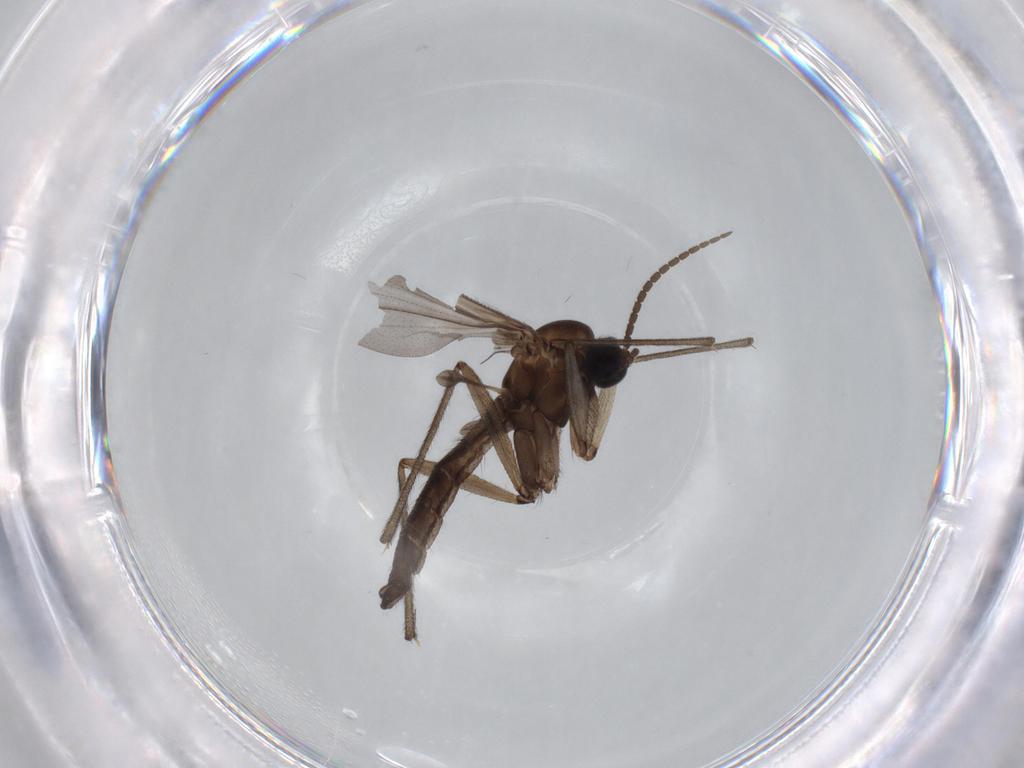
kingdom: Animalia
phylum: Arthropoda
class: Insecta
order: Diptera
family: Sciaridae
